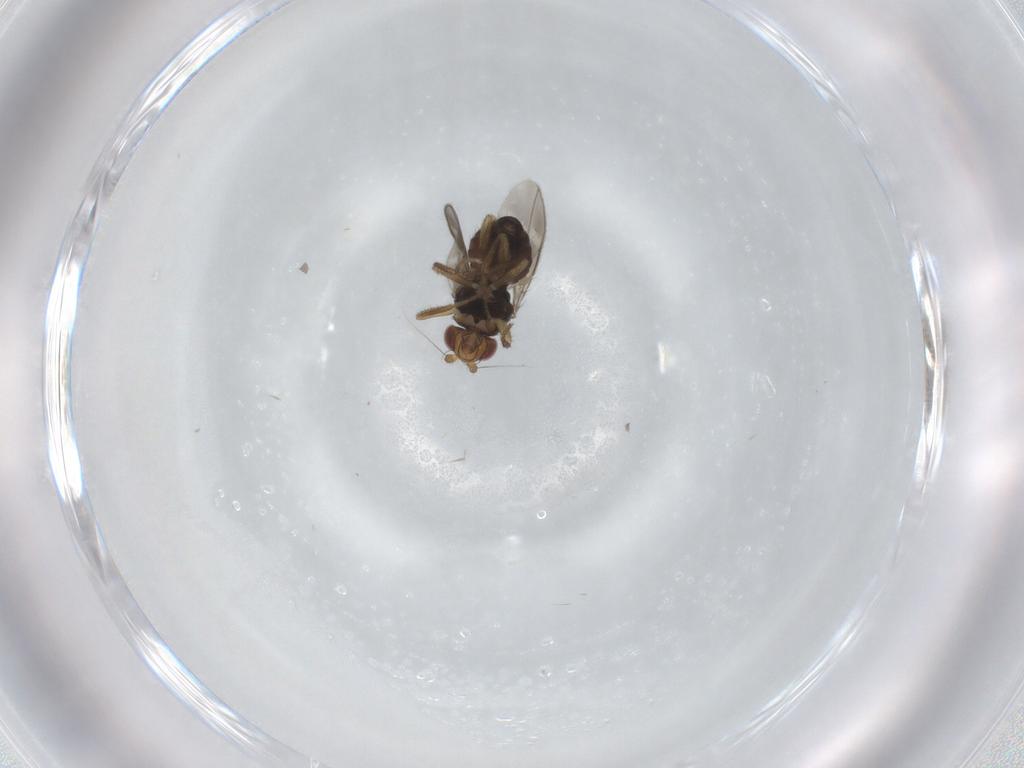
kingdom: Animalia
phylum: Arthropoda
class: Insecta
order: Diptera
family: Sphaeroceridae
